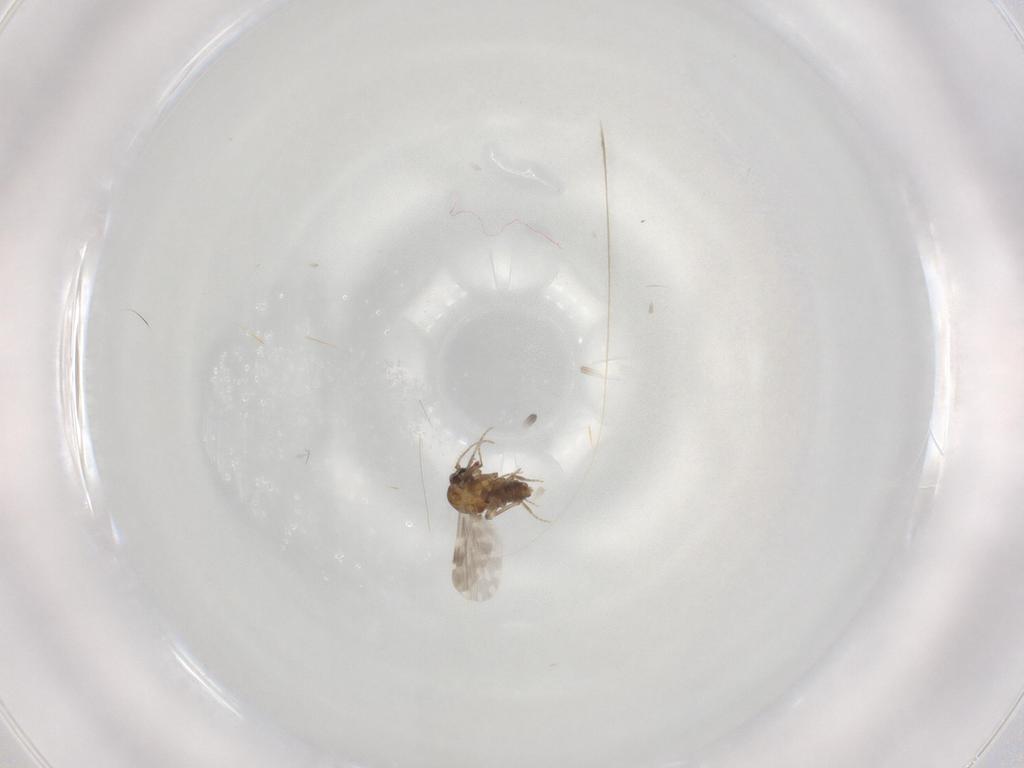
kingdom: Animalia
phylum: Arthropoda
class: Insecta
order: Diptera
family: Ceratopogonidae
